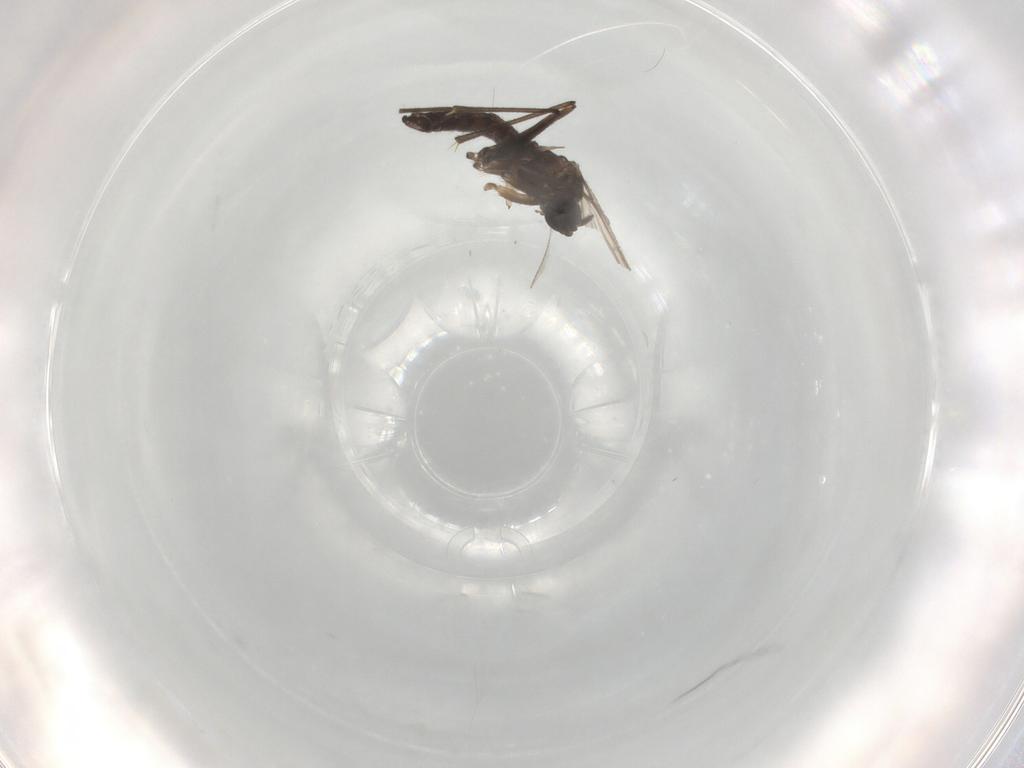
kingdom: Animalia
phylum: Arthropoda
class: Insecta
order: Diptera
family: Sciaridae
